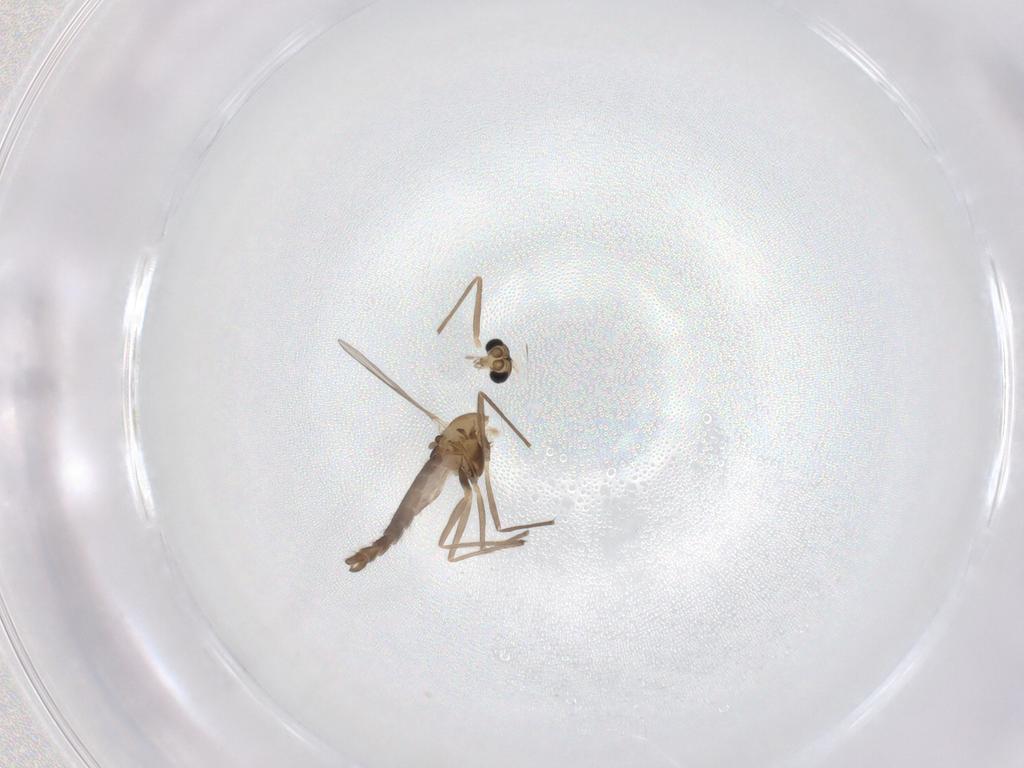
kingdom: Animalia
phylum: Arthropoda
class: Insecta
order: Diptera
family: Chironomidae
